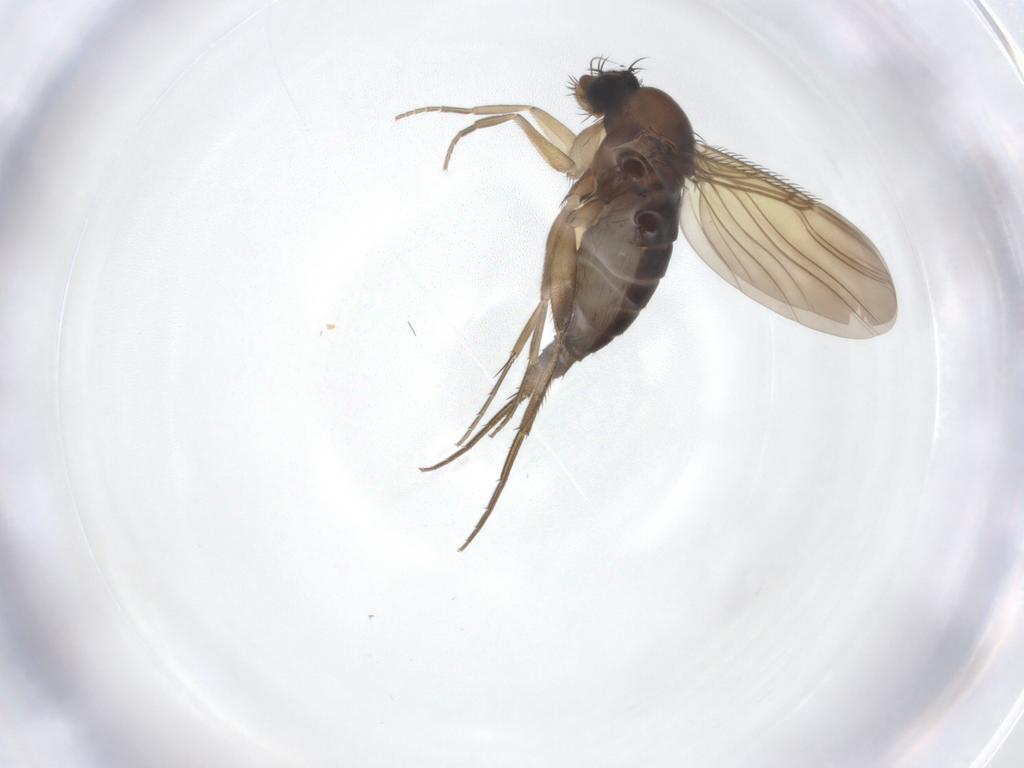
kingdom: Animalia
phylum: Arthropoda
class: Insecta
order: Diptera
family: Phoridae
